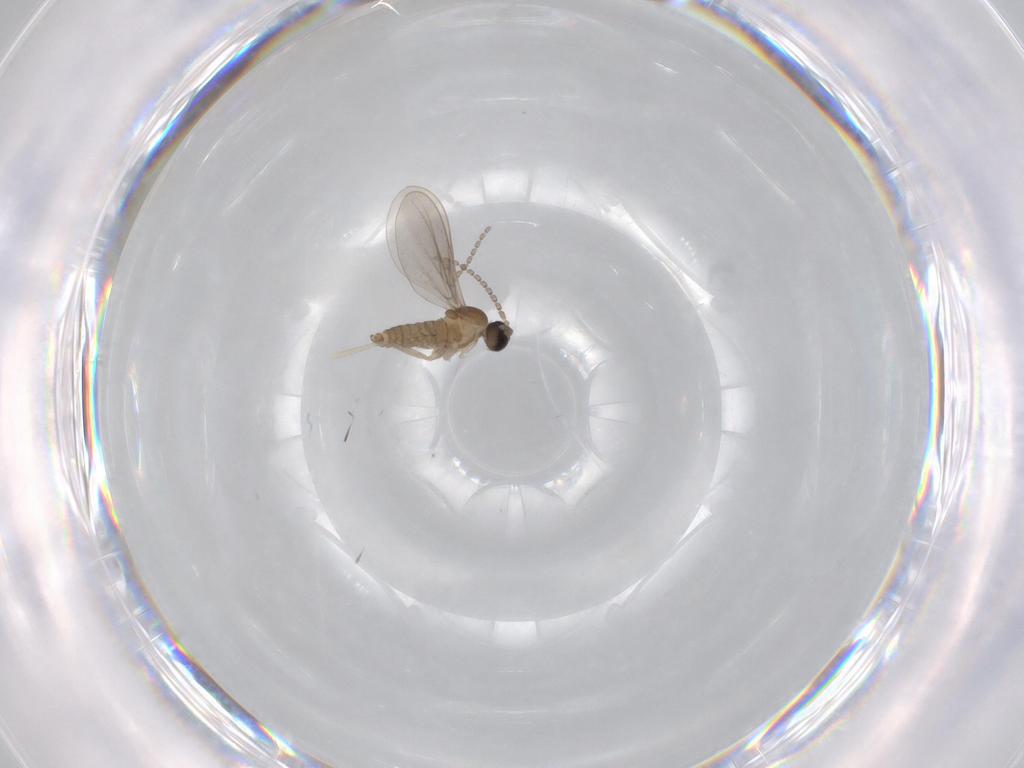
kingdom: Animalia
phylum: Arthropoda
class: Insecta
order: Diptera
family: Cecidomyiidae
